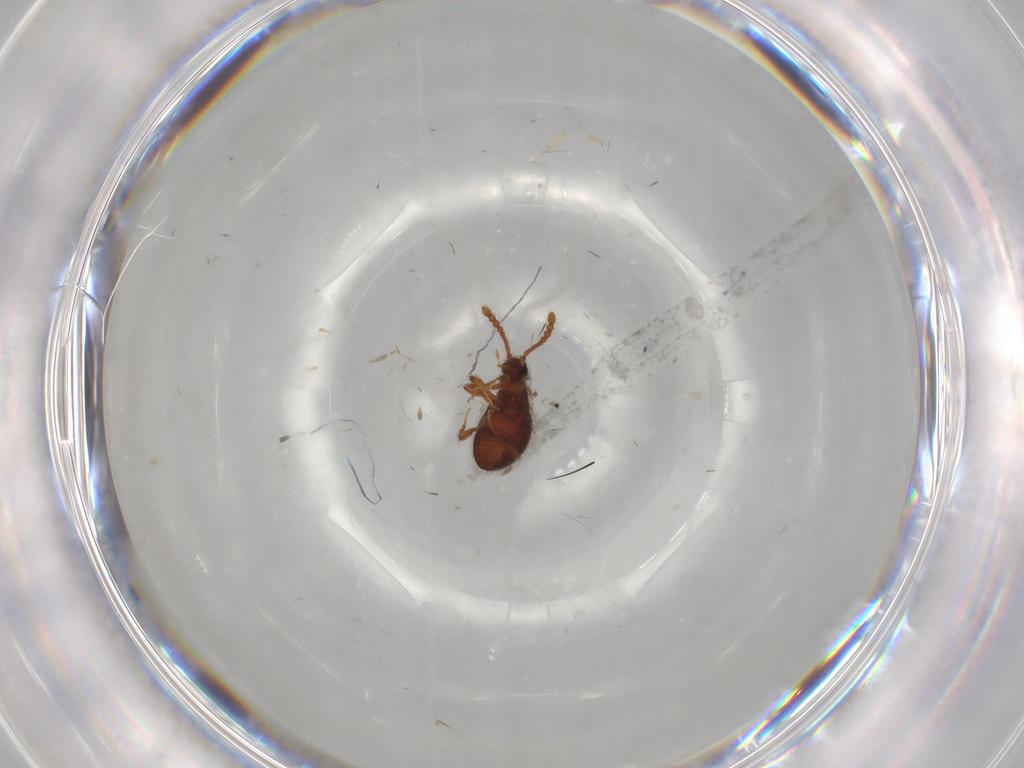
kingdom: Animalia
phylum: Arthropoda
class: Insecta
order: Coleoptera
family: Staphylinidae
